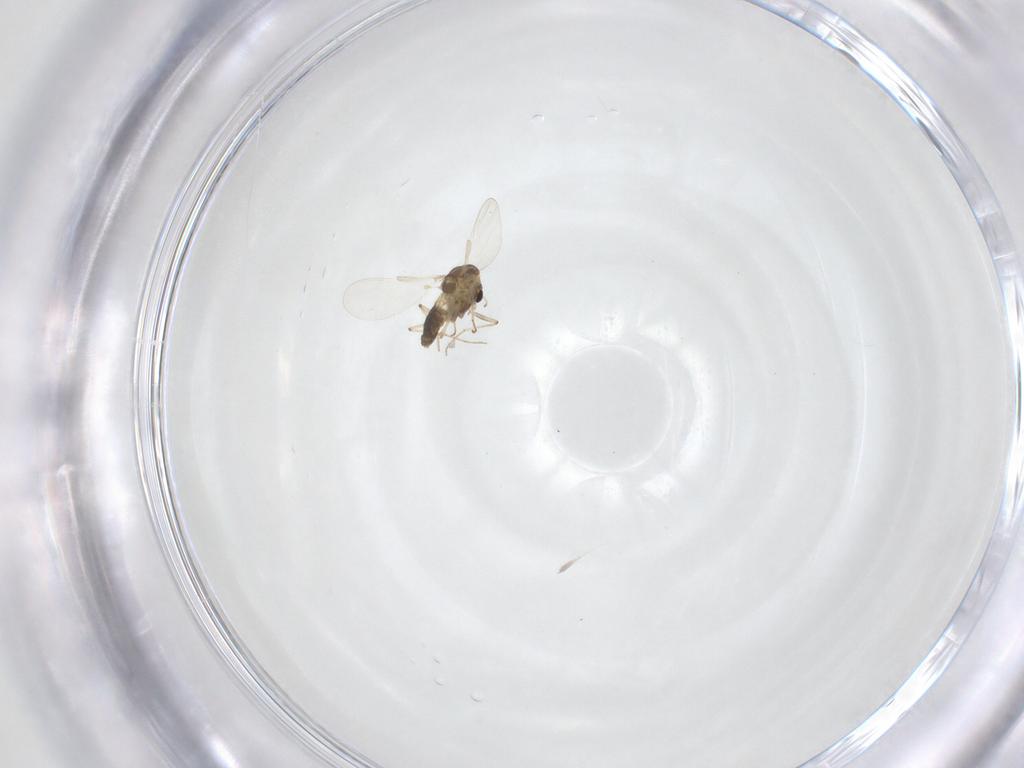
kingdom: Animalia
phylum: Arthropoda
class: Insecta
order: Diptera
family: Chironomidae
